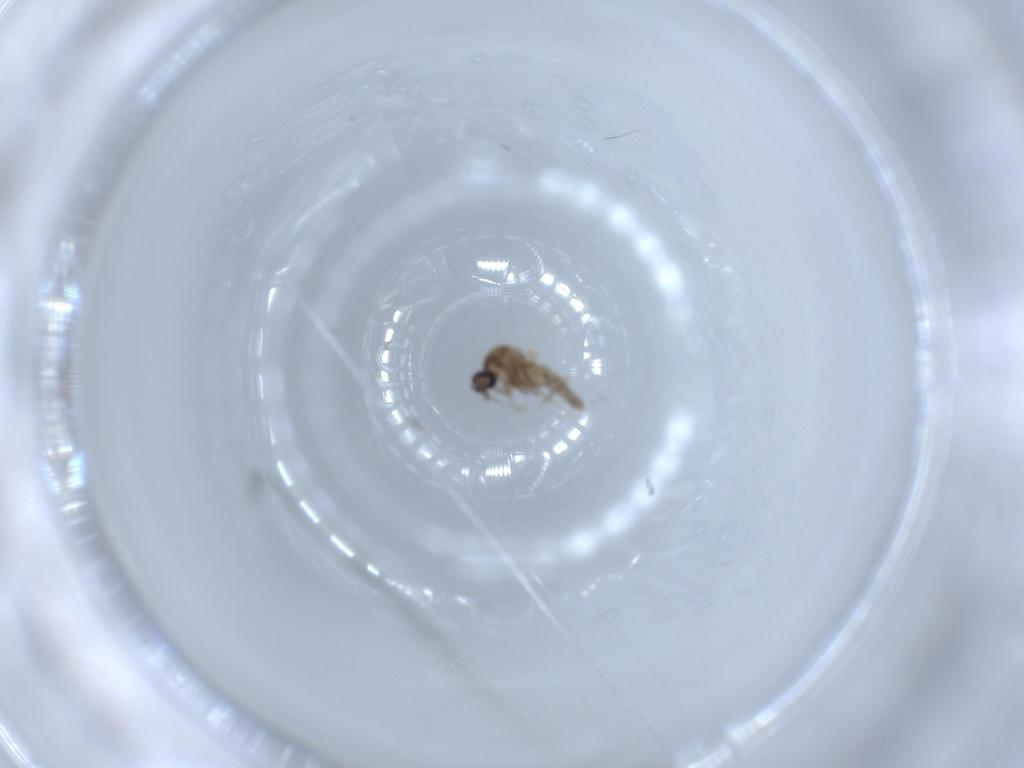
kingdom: Animalia
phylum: Arthropoda
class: Insecta
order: Diptera
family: Ceratopogonidae
